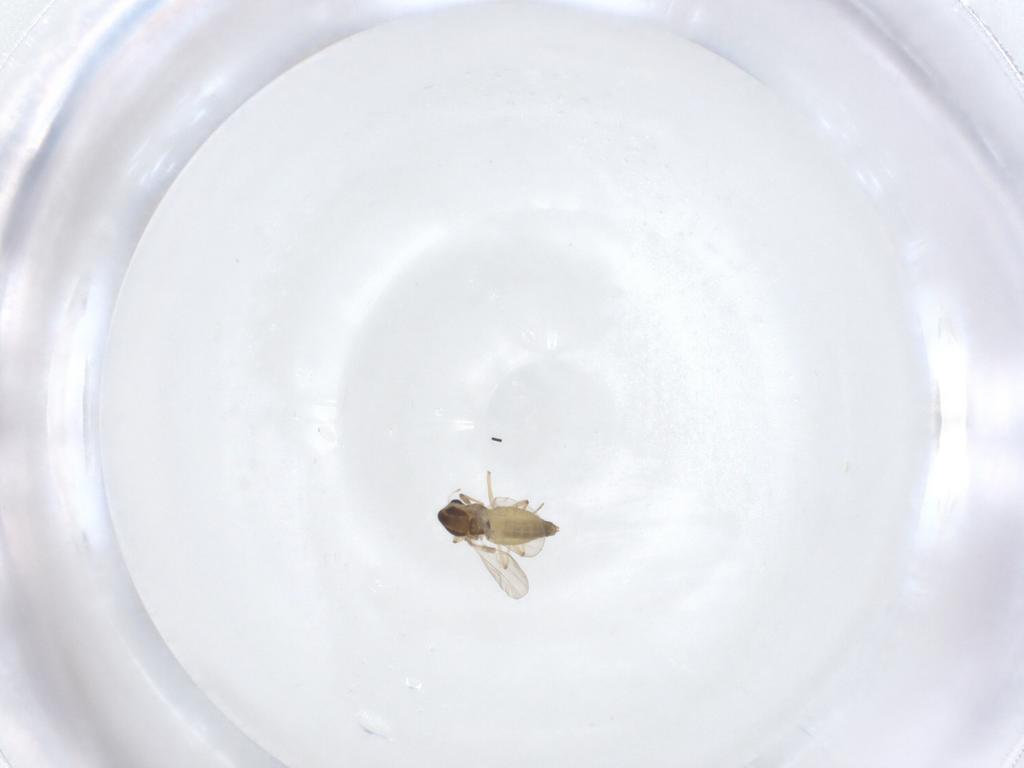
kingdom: Animalia
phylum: Arthropoda
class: Insecta
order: Diptera
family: Chironomidae
